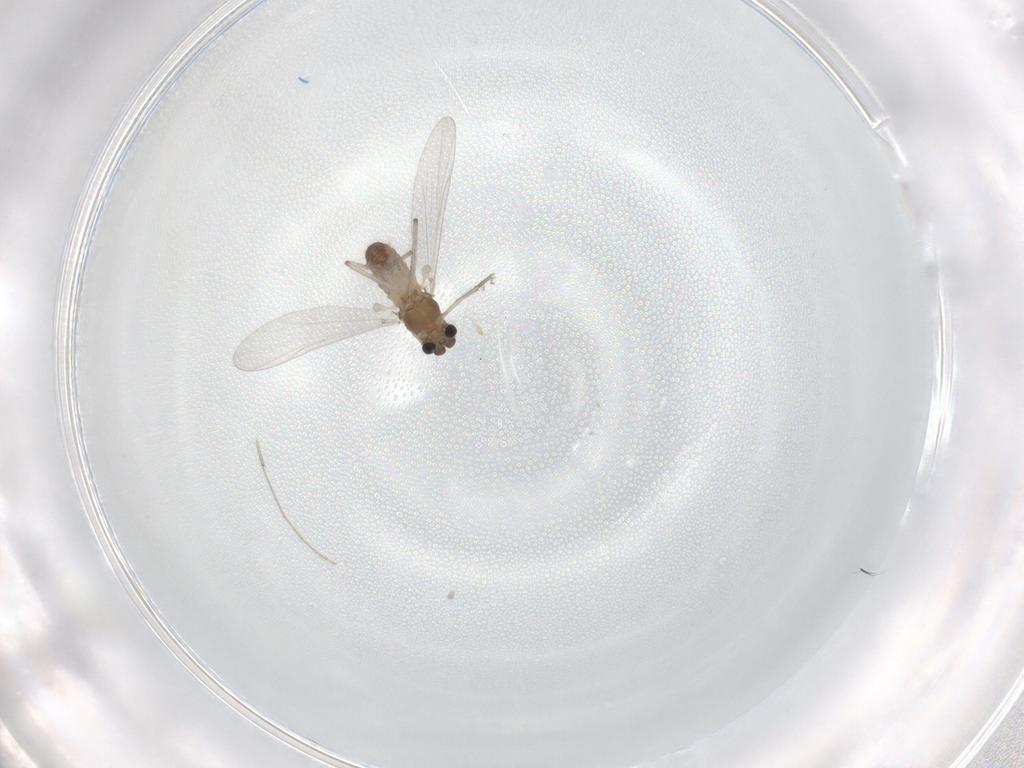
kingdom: Animalia
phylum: Arthropoda
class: Insecta
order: Diptera
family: Chironomidae
